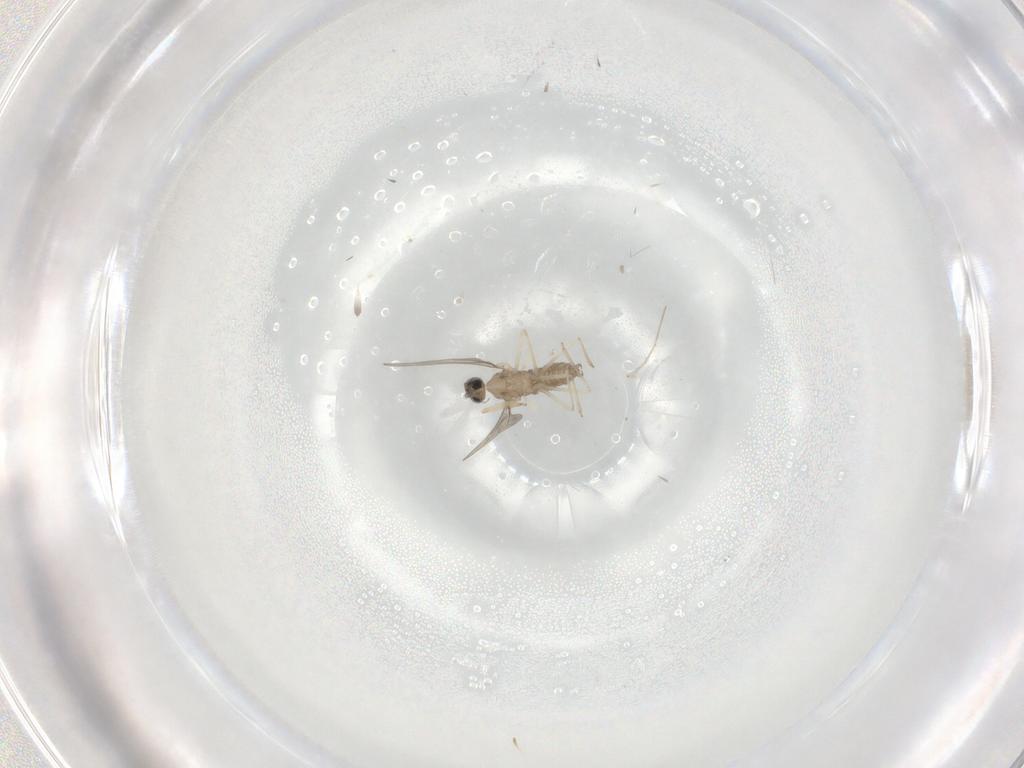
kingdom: Animalia
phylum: Arthropoda
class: Insecta
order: Diptera
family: Cecidomyiidae
